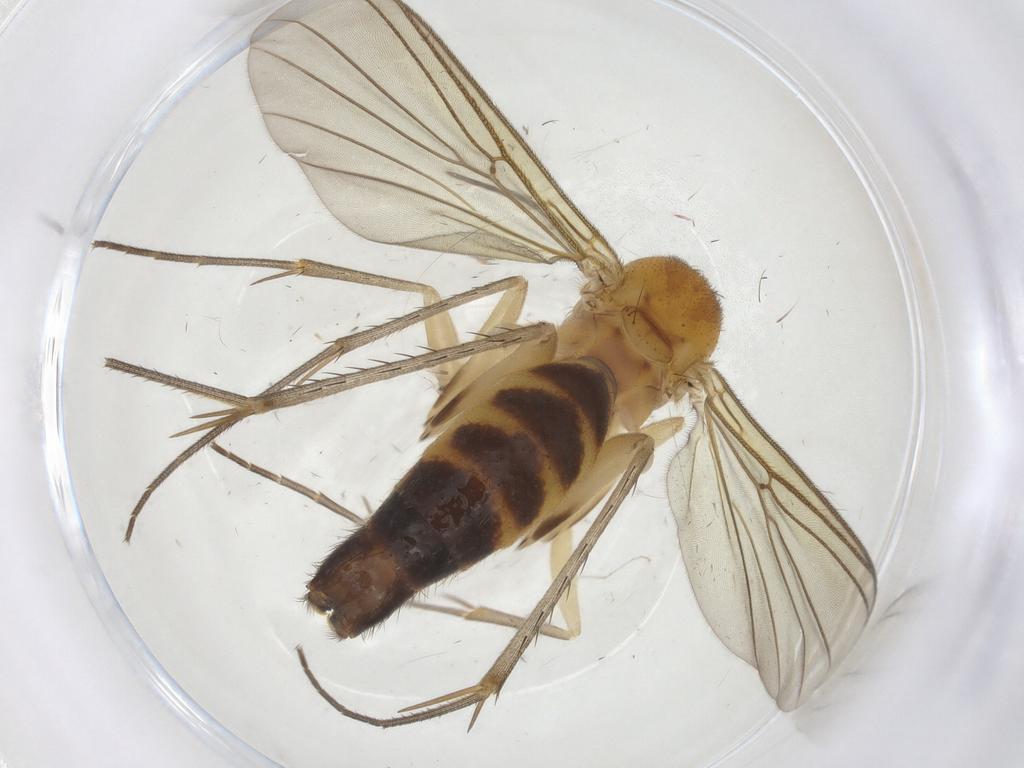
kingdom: Animalia
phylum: Arthropoda
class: Insecta
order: Diptera
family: Mycetophilidae
